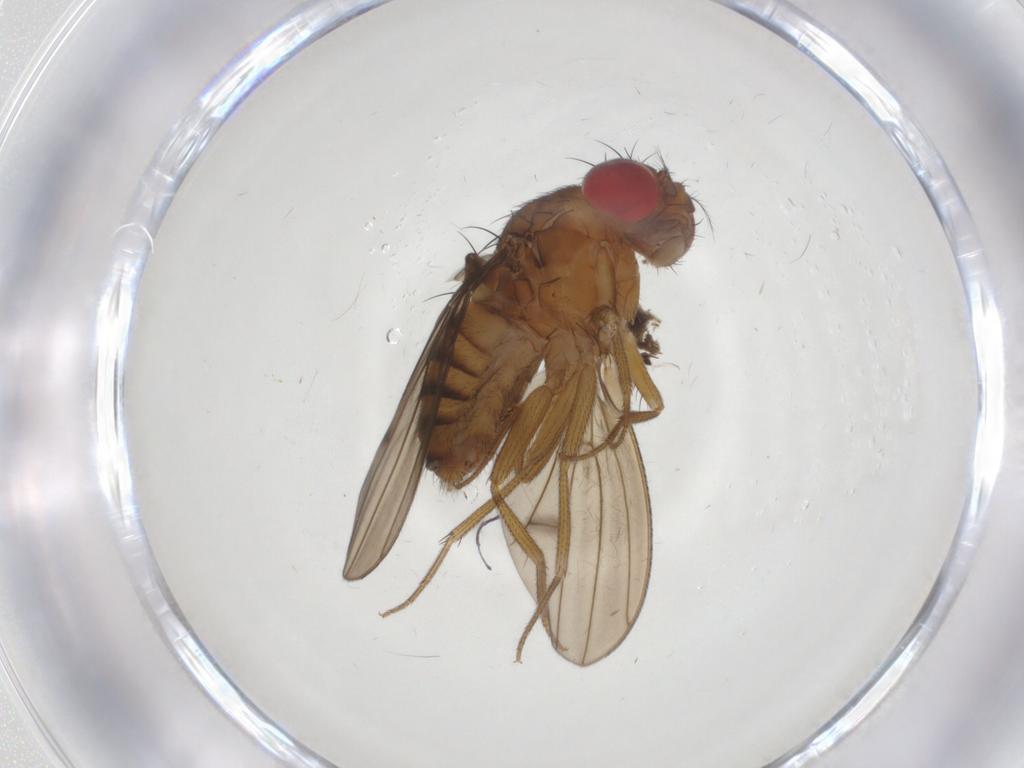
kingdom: Animalia
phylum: Arthropoda
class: Insecta
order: Diptera
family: Drosophilidae
